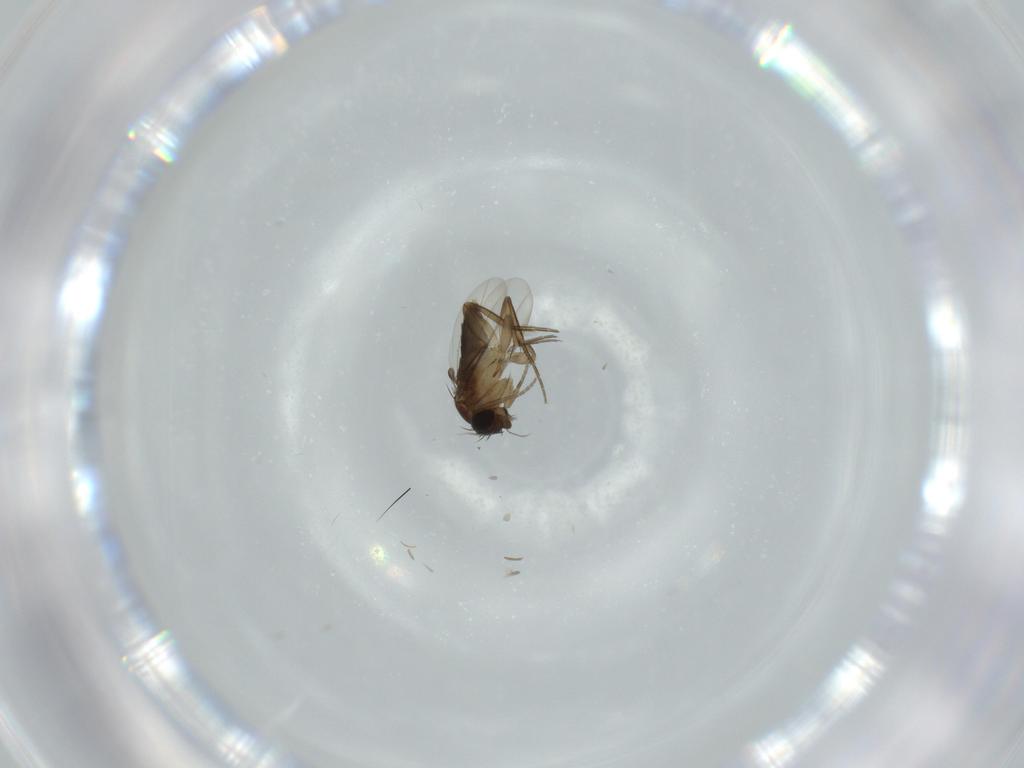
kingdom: Animalia
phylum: Arthropoda
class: Insecta
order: Diptera
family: Phoridae
